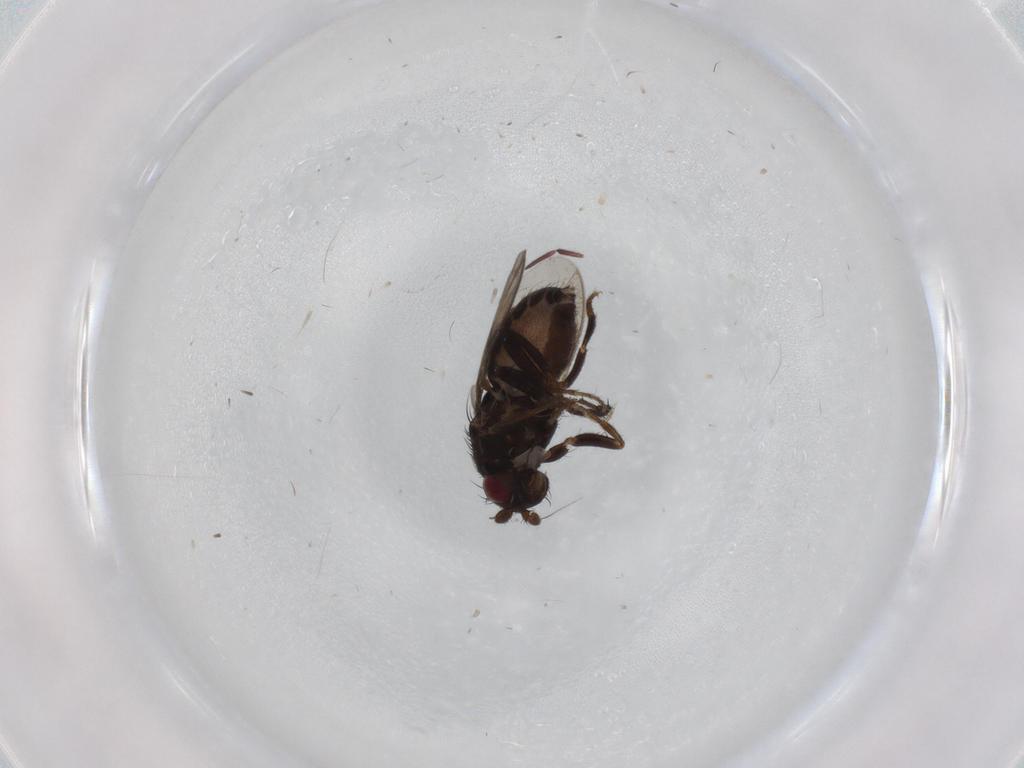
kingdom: Animalia
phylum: Arthropoda
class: Insecta
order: Diptera
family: Sphaeroceridae
